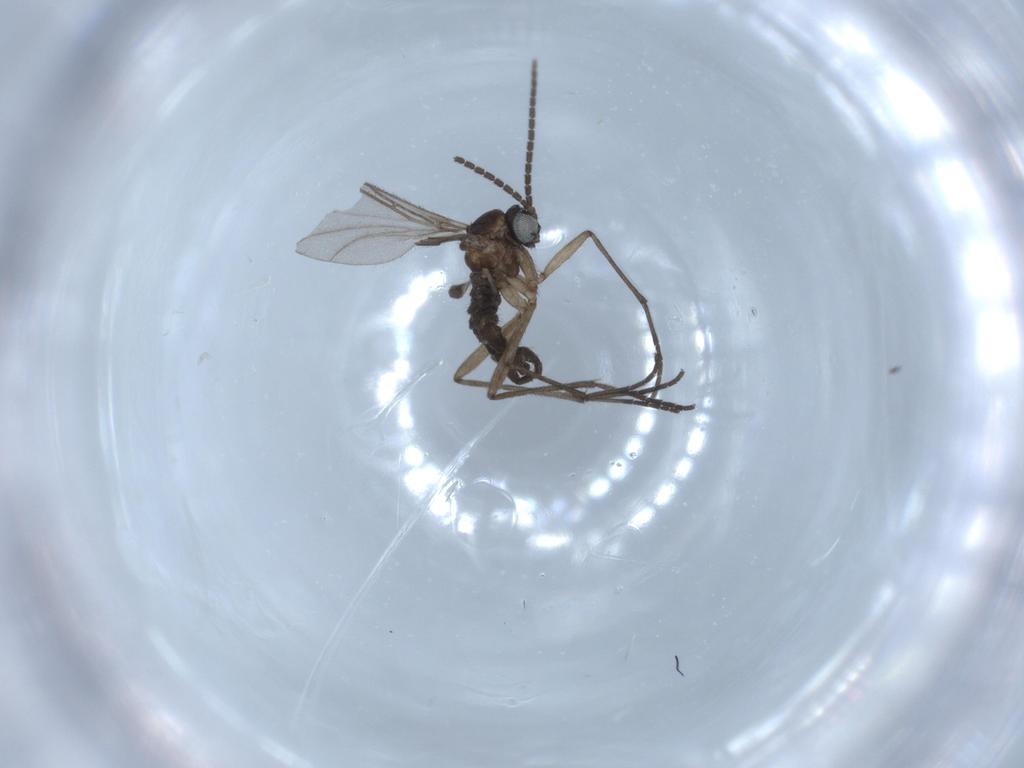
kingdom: Animalia
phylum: Arthropoda
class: Insecta
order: Diptera
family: Sciaridae
